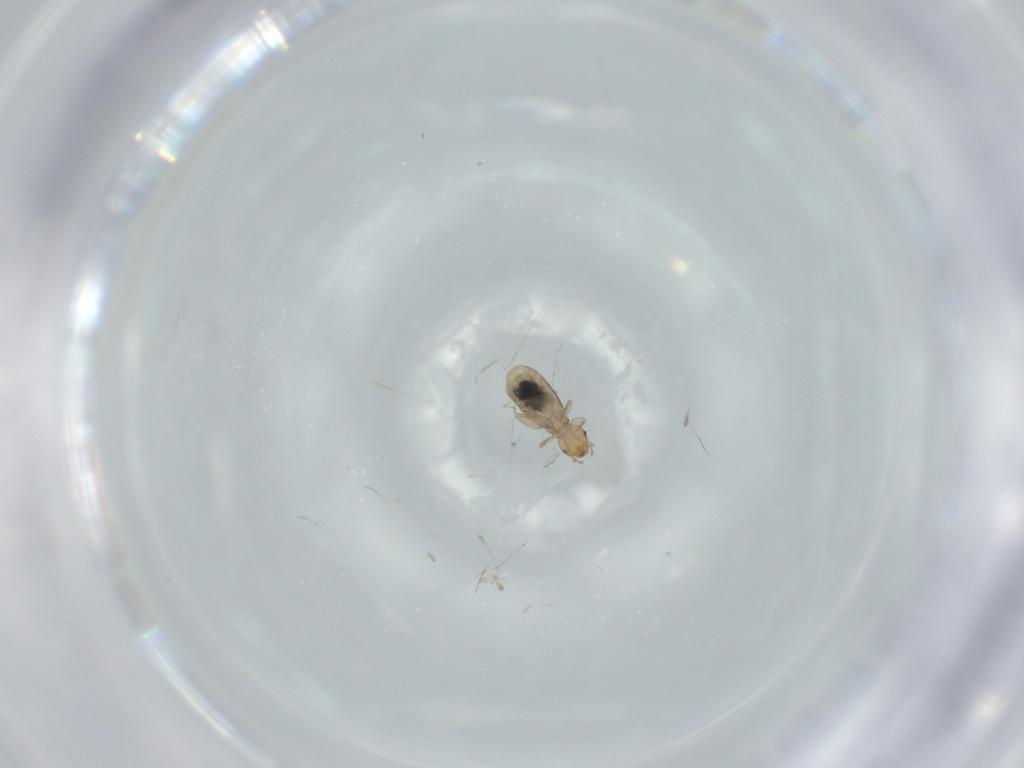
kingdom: Animalia
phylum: Arthropoda
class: Insecta
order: Psocodea
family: Liposcelididae
